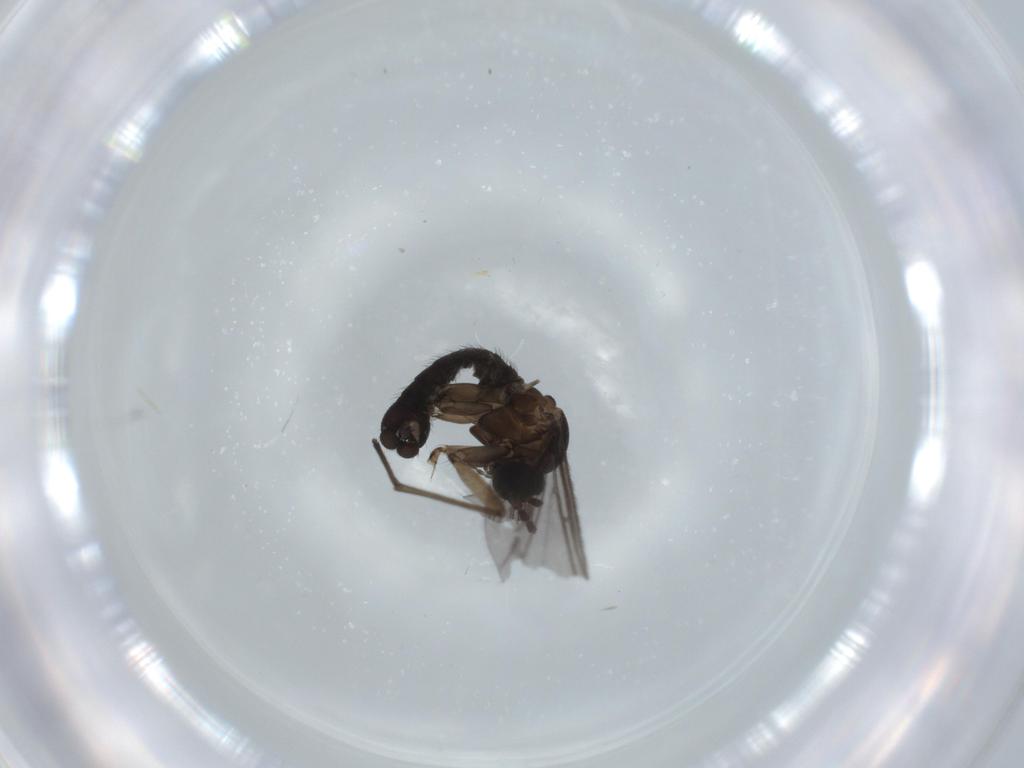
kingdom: Animalia
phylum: Arthropoda
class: Insecta
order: Diptera
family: Sciaridae
